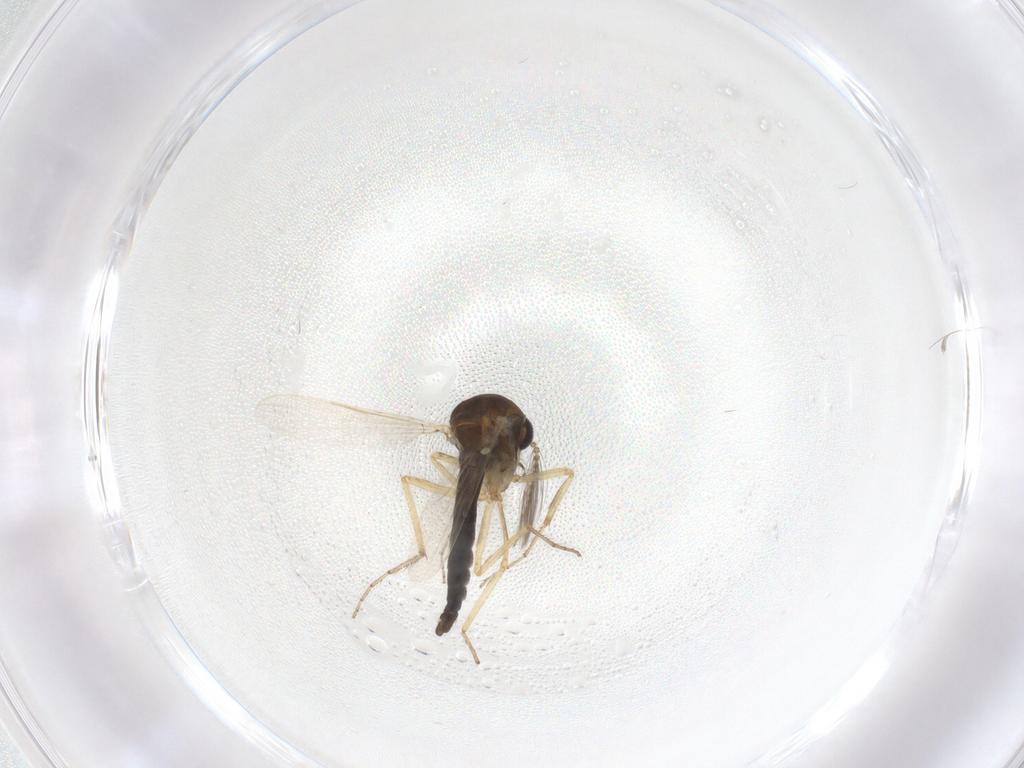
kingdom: Animalia
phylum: Arthropoda
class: Insecta
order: Diptera
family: Ceratopogonidae
